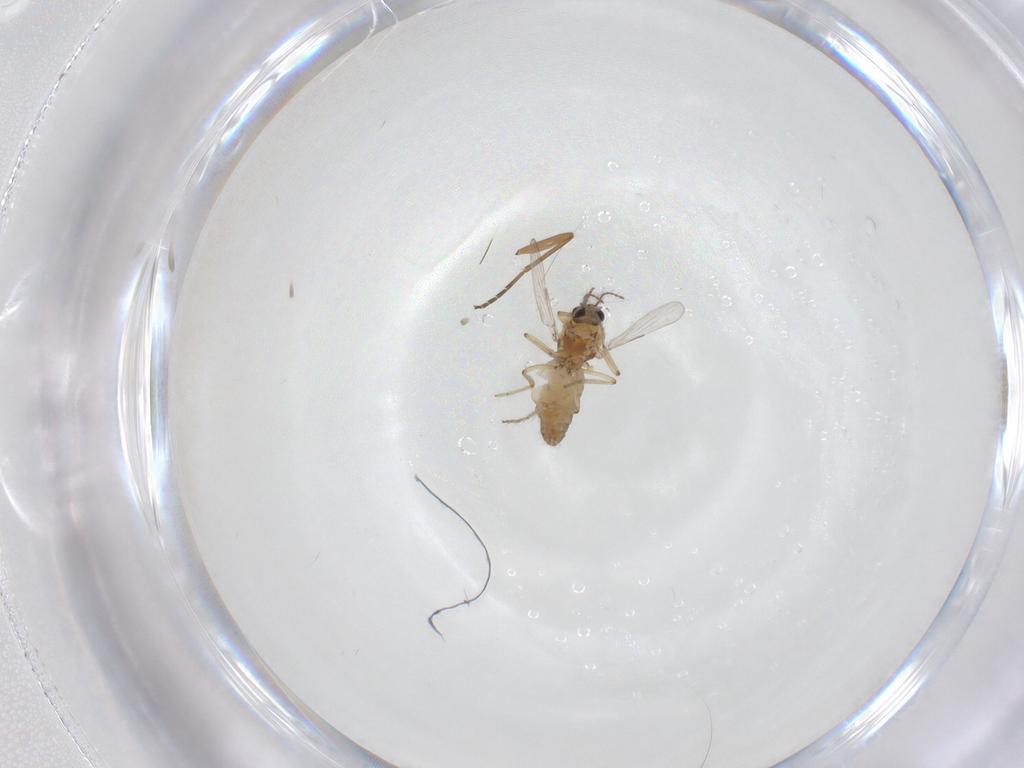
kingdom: Animalia
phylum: Arthropoda
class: Insecta
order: Diptera
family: Ceratopogonidae
